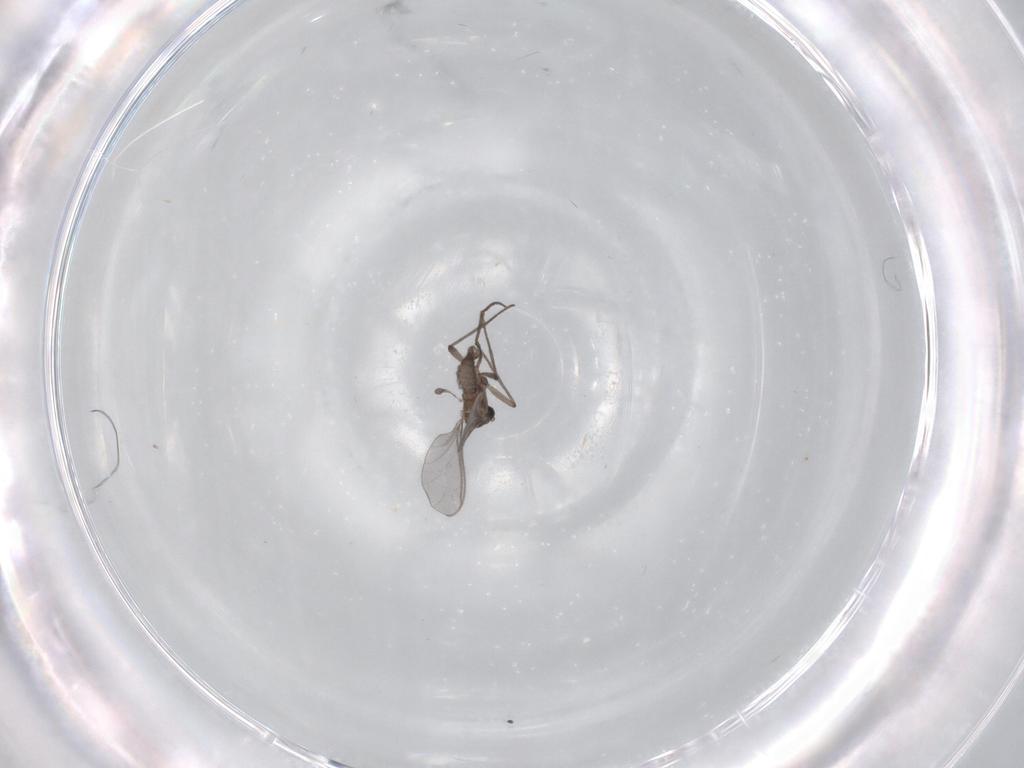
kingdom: Animalia
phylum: Arthropoda
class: Insecta
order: Diptera
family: Sciaridae
